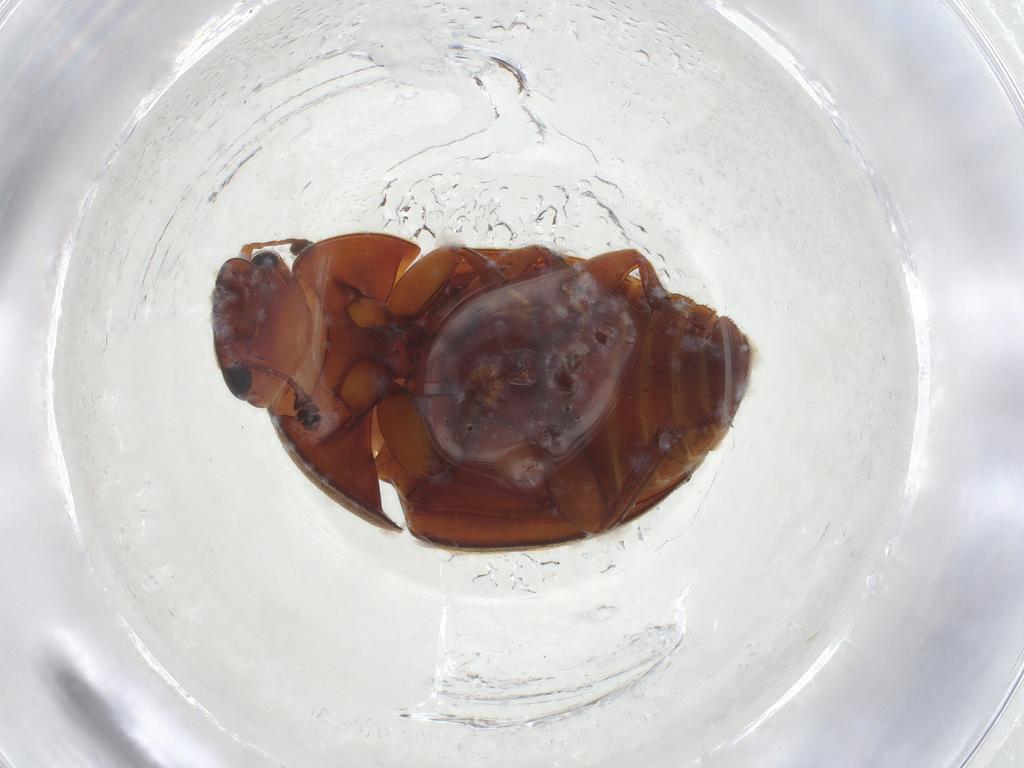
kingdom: Animalia
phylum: Arthropoda
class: Insecta
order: Coleoptera
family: Nitidulidae
